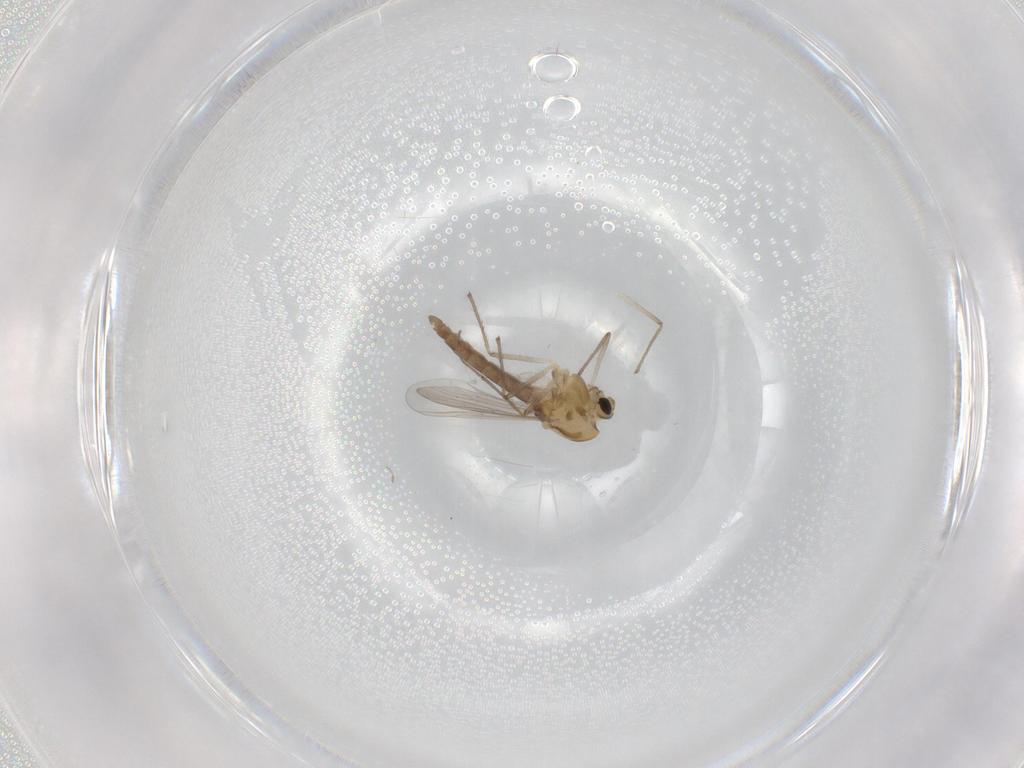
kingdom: Animalia
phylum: Arthropoda
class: Insecta
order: Diptera
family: Chironomidae
